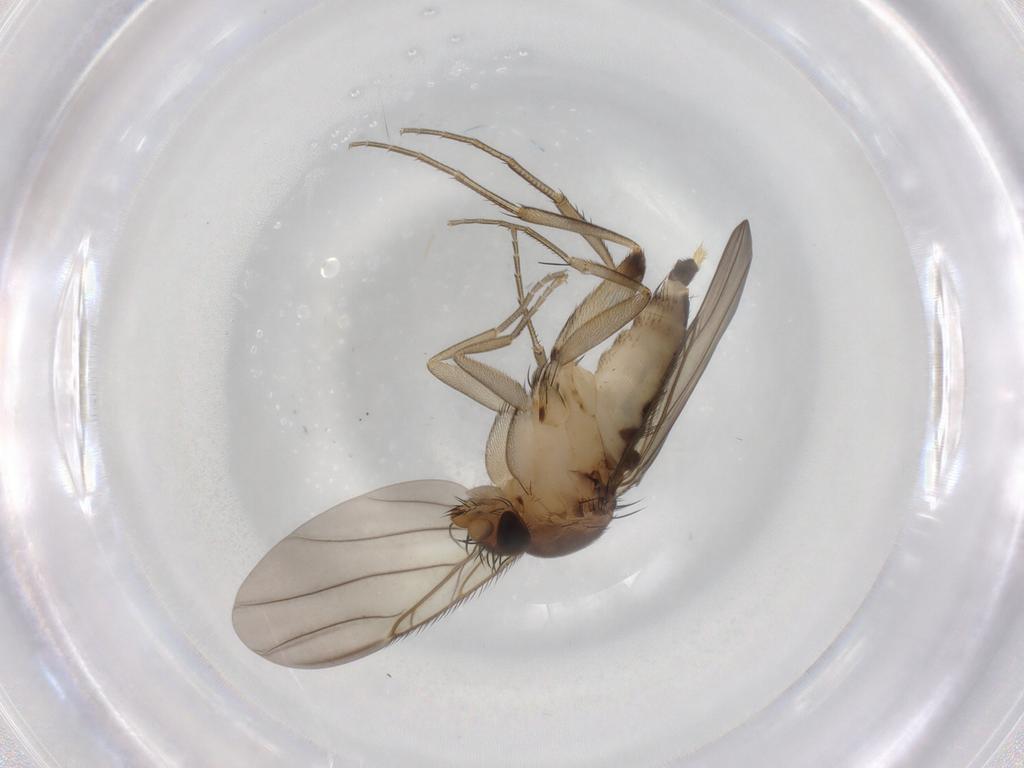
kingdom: Animalia
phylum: Arthropoda
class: Insecta
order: Diptera
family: Phoridae
